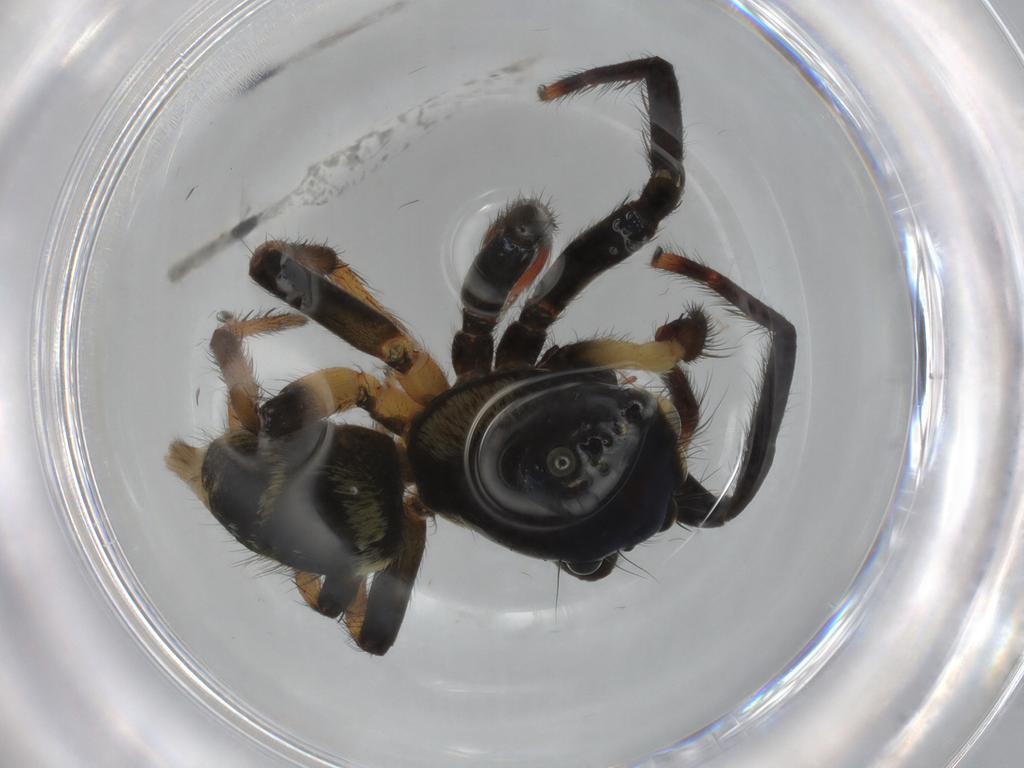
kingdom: Animalia
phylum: Arthropoda
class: Arachnida
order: Araneae
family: Salticidae
